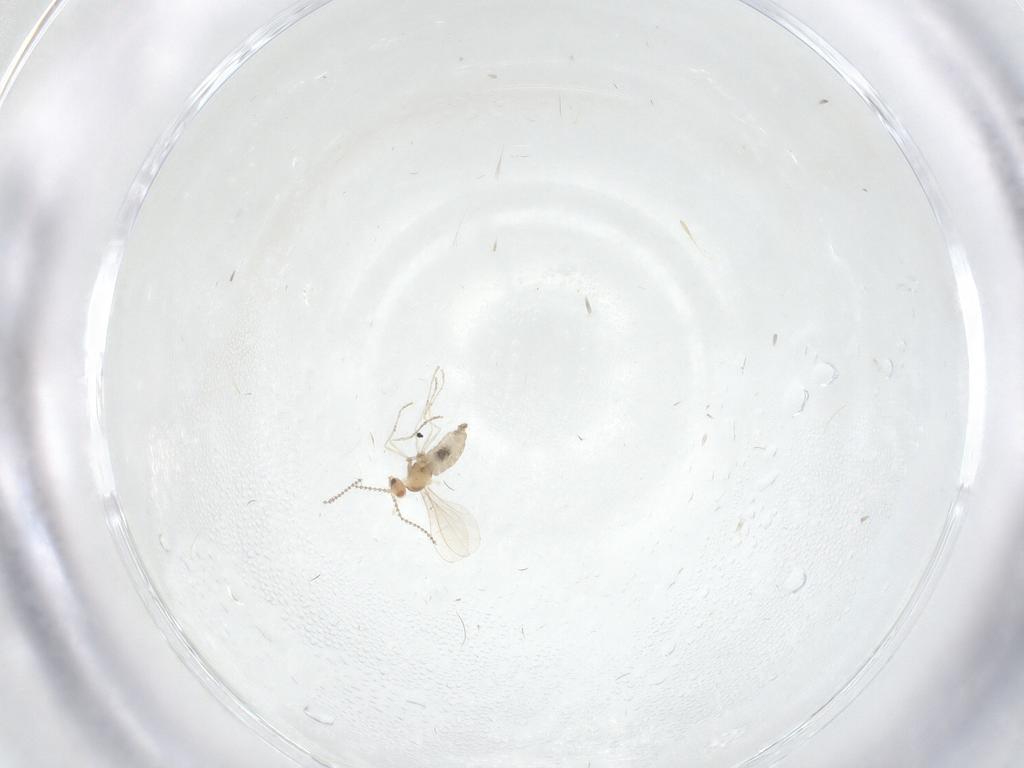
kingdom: Animalia
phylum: Arthropoda
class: Insecta
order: Diptera
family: Cecidomyiidae
